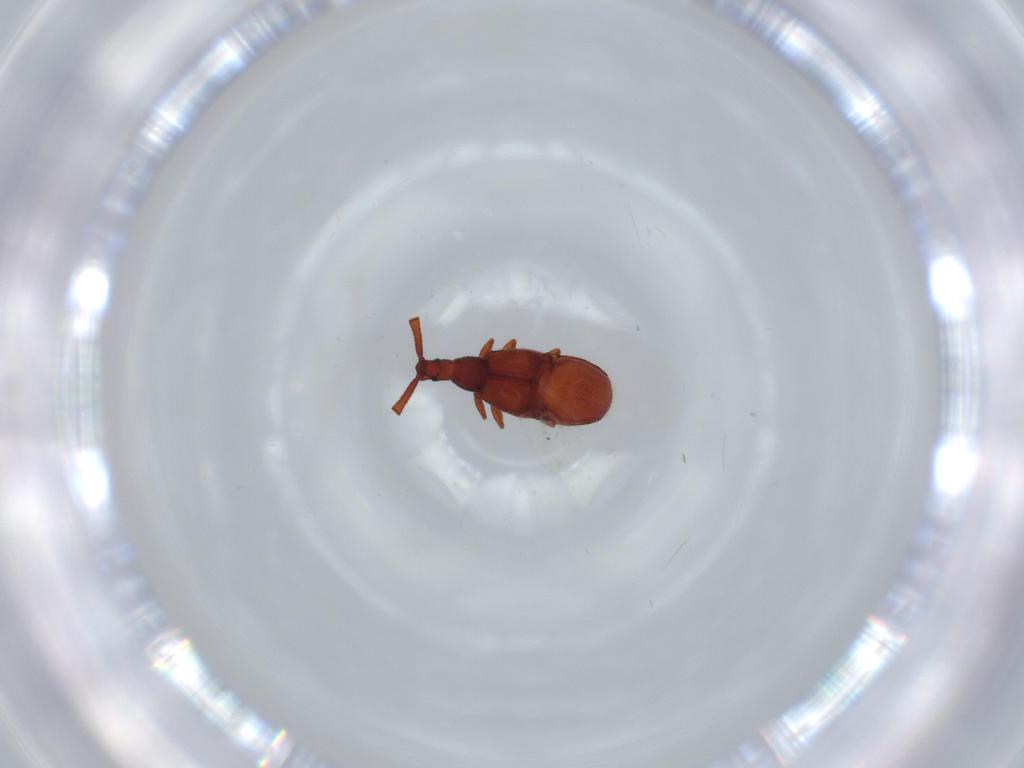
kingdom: Animalia
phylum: Arthropoda
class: Insecta
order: Coleoptera
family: Staphylinidae
